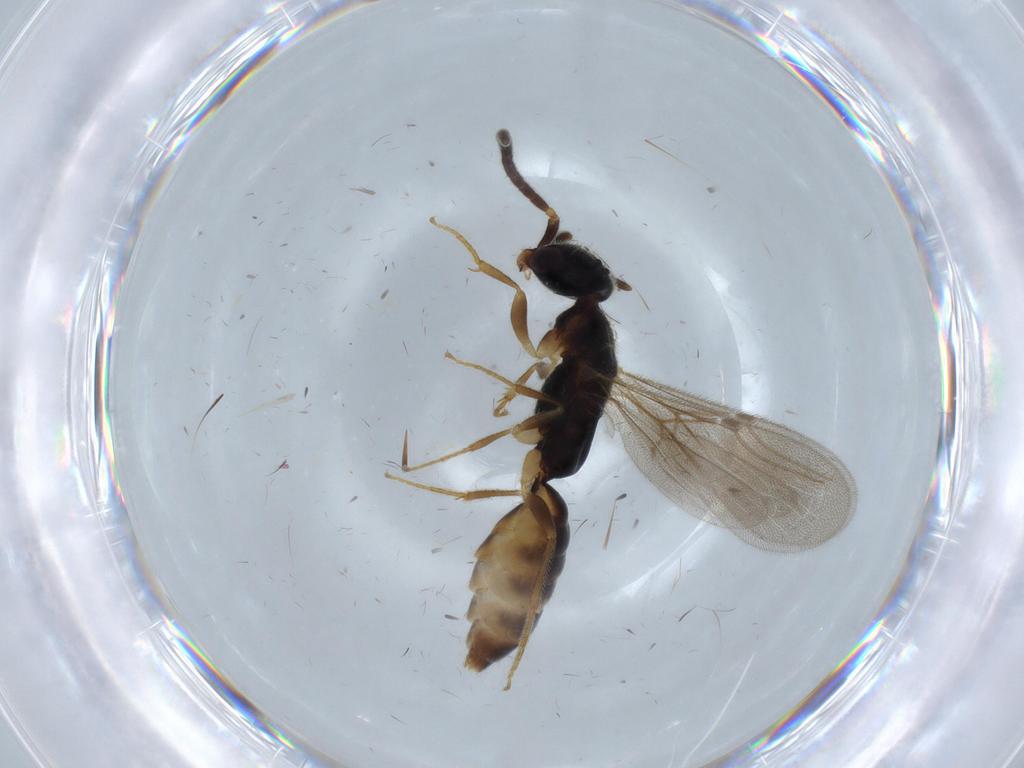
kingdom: Animalia
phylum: Arthropoda
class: Insecta
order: Hymenoptera
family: Bethylidae
